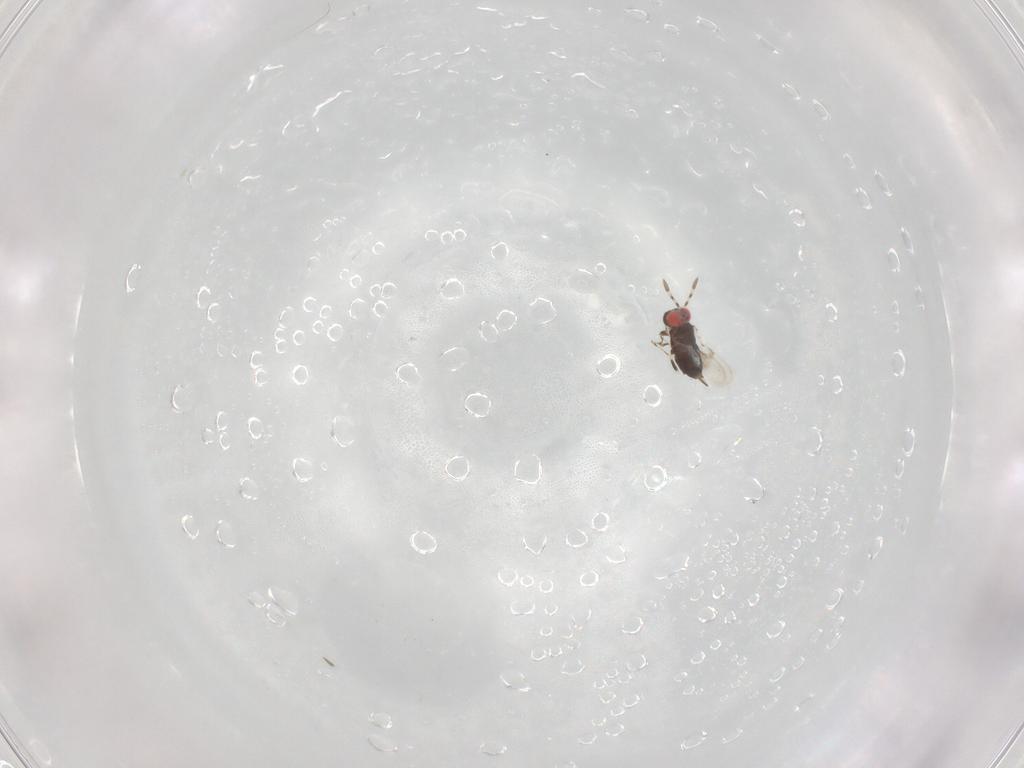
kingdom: Animalia
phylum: Arthropoda
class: Insecta
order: Hymenoptera
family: Trichogrammatidae
